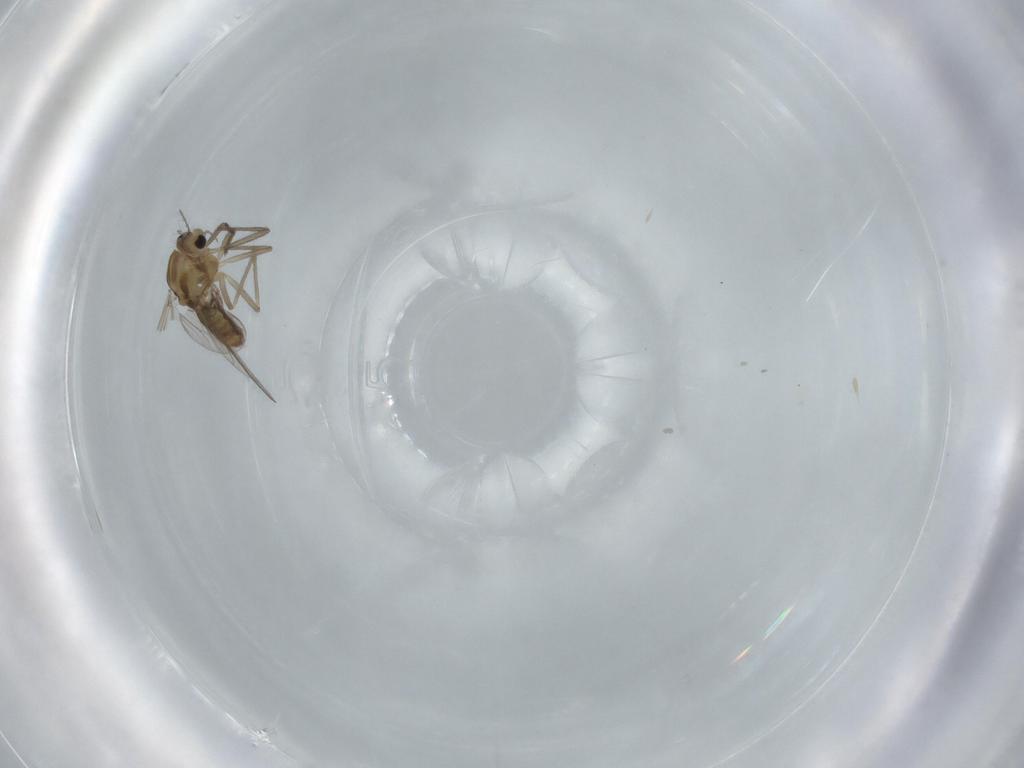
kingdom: Animalia
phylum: Arthropoda
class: Insecta
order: Diptera
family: Chironomidae
